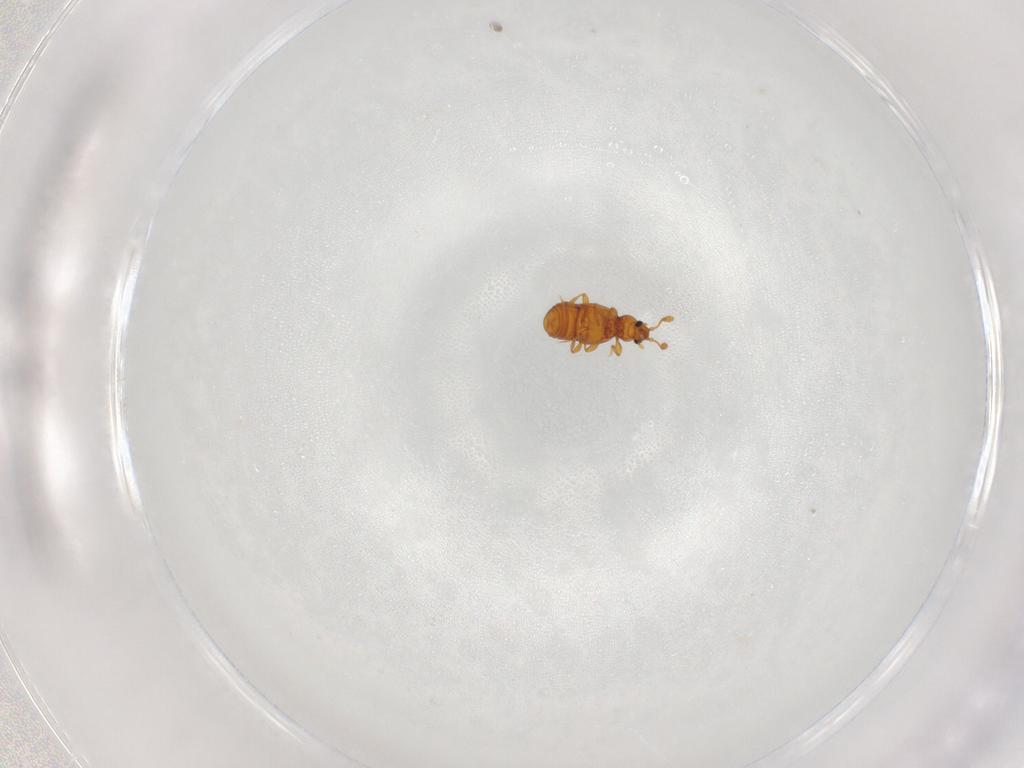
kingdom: Animalia
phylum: Arthropoda
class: Insecta
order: Coleoptera
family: Staphylinidae
